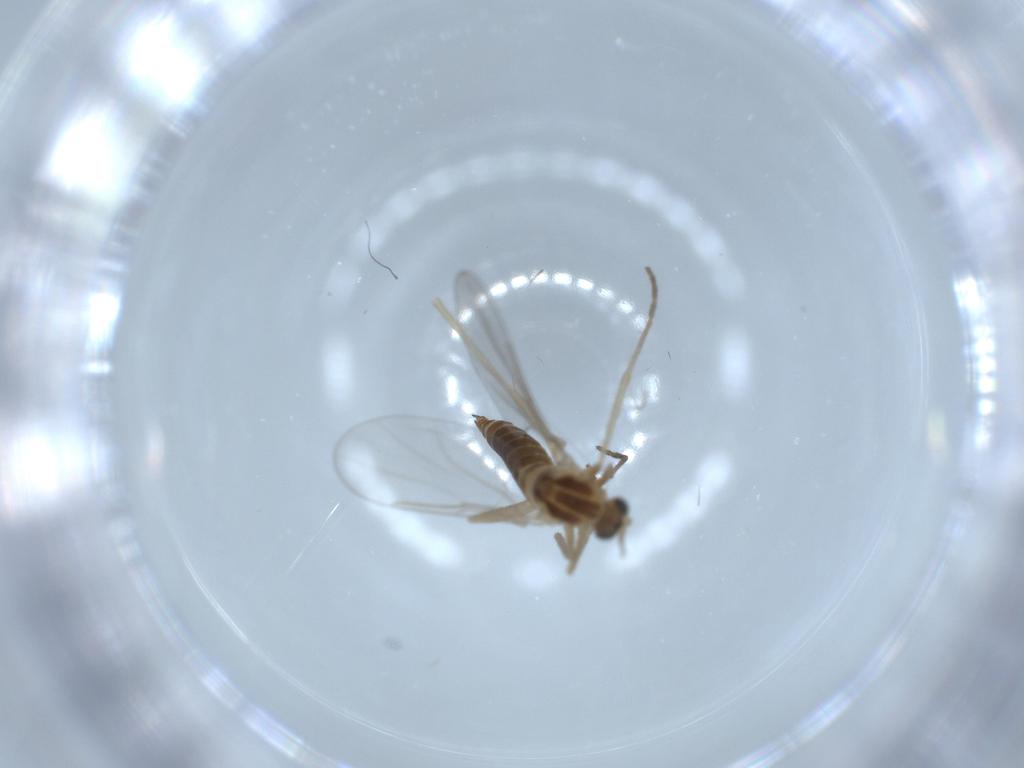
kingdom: Animalia
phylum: Arthropoda
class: Insecta
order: Diptera
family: Cecidomyiidae
